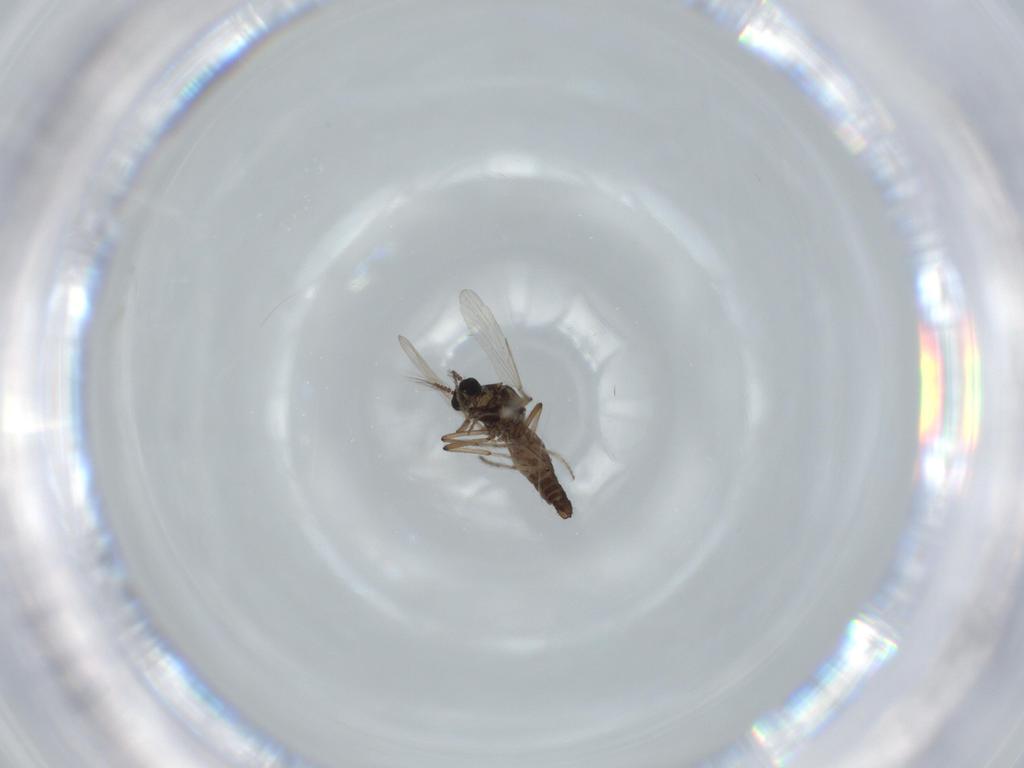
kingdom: Animalia
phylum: Arthropoda
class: Insecta
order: Diptera
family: Ceratopogonidae
